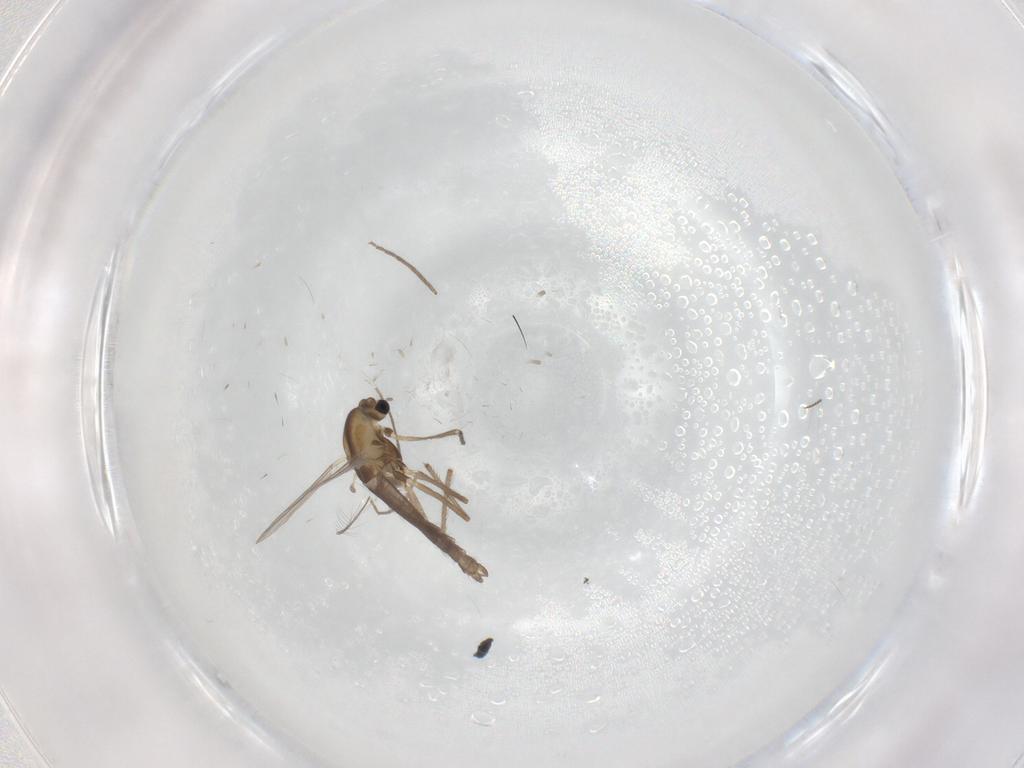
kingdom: Animalia
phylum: Arthropoda
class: Insecta
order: Diptera
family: Chironomidae
